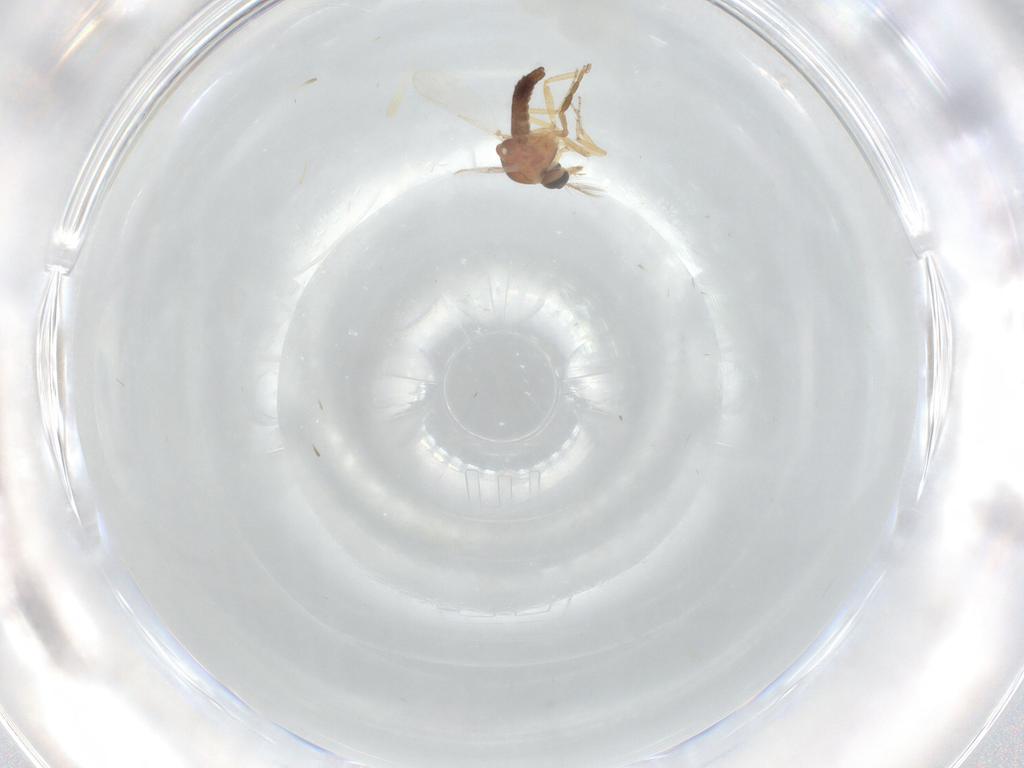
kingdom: Animalia
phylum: Arthropoda
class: Insecta
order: Diptera
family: Ceratopogonidae
